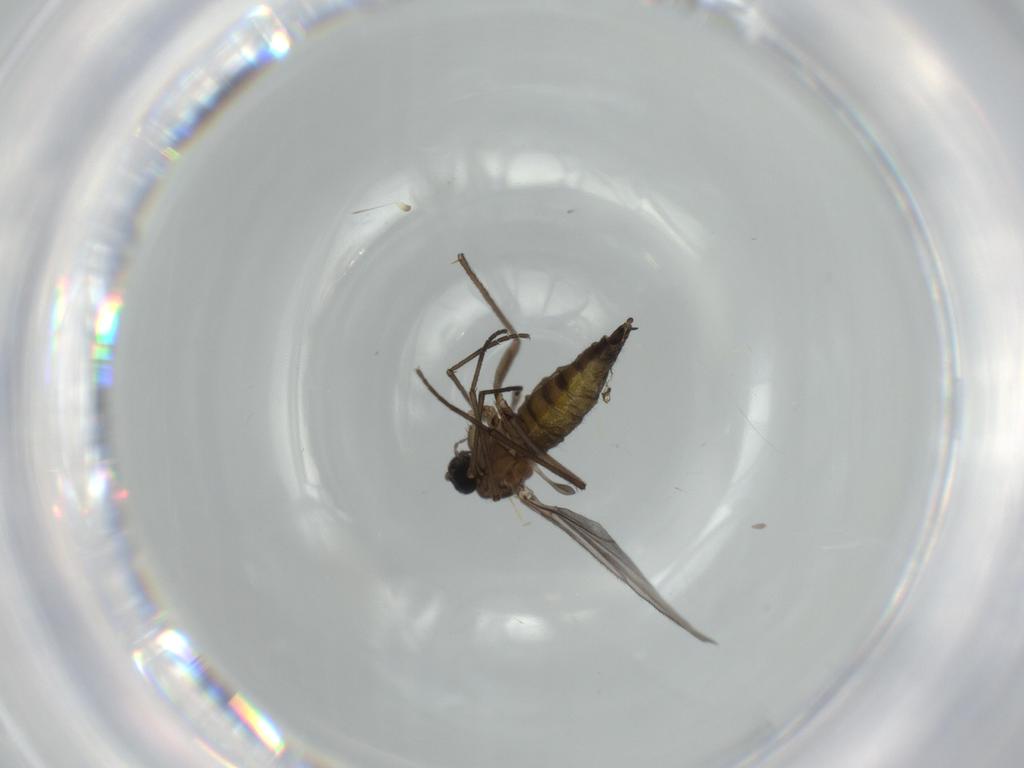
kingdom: Animalia
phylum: Arthropoda
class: Insecta
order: Diptera
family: Sciaridae
